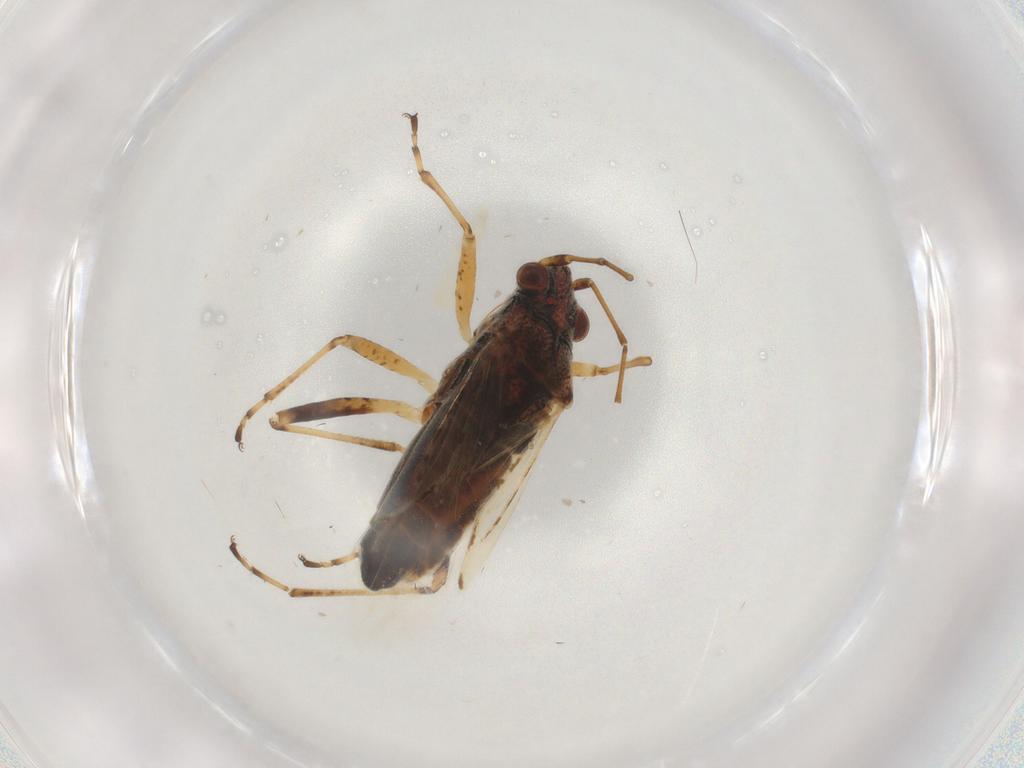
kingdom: Animalia
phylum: Arthropoda
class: Insecta
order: Hemiptera
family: Lygaeidae
